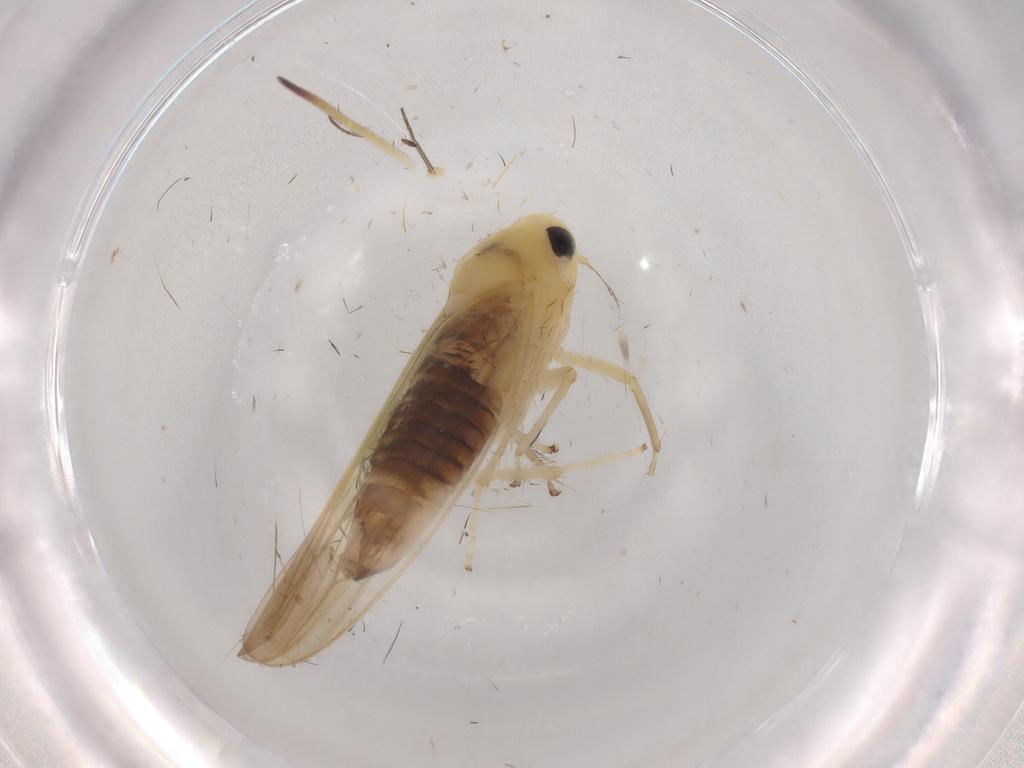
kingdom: Animalia
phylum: Arthropoda
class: Insecta
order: Hemiptera
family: Cicadellidae
